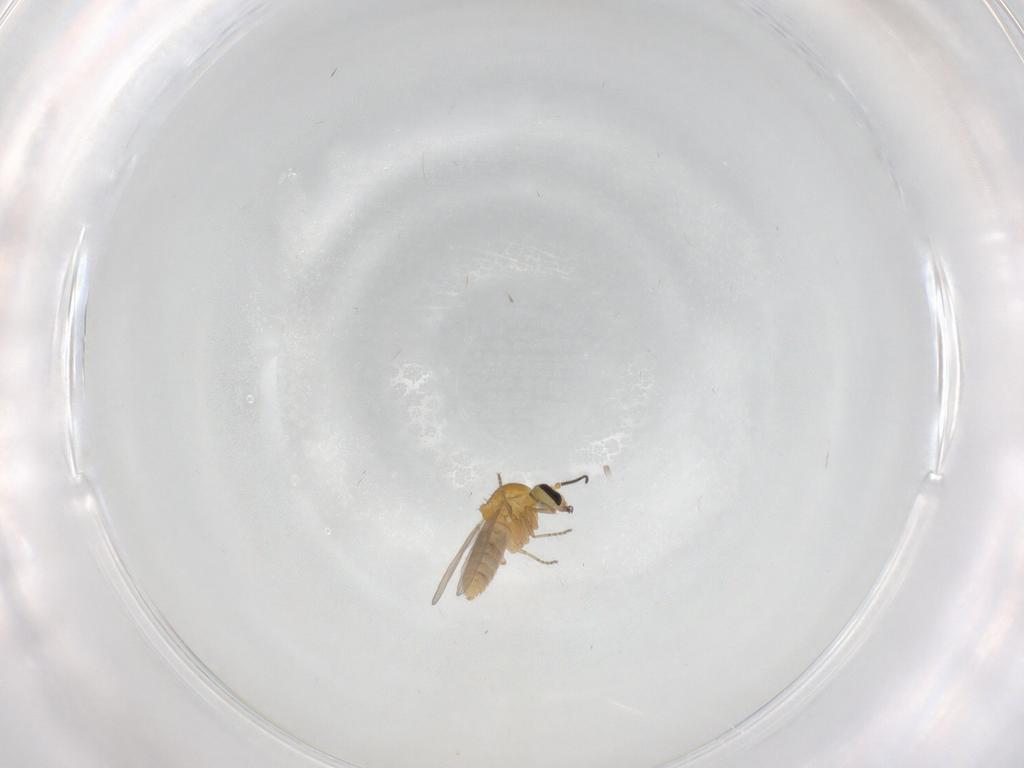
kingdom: Animalia
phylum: Arthropoda
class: Insecta
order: Diptera
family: Ceratopogonidae
